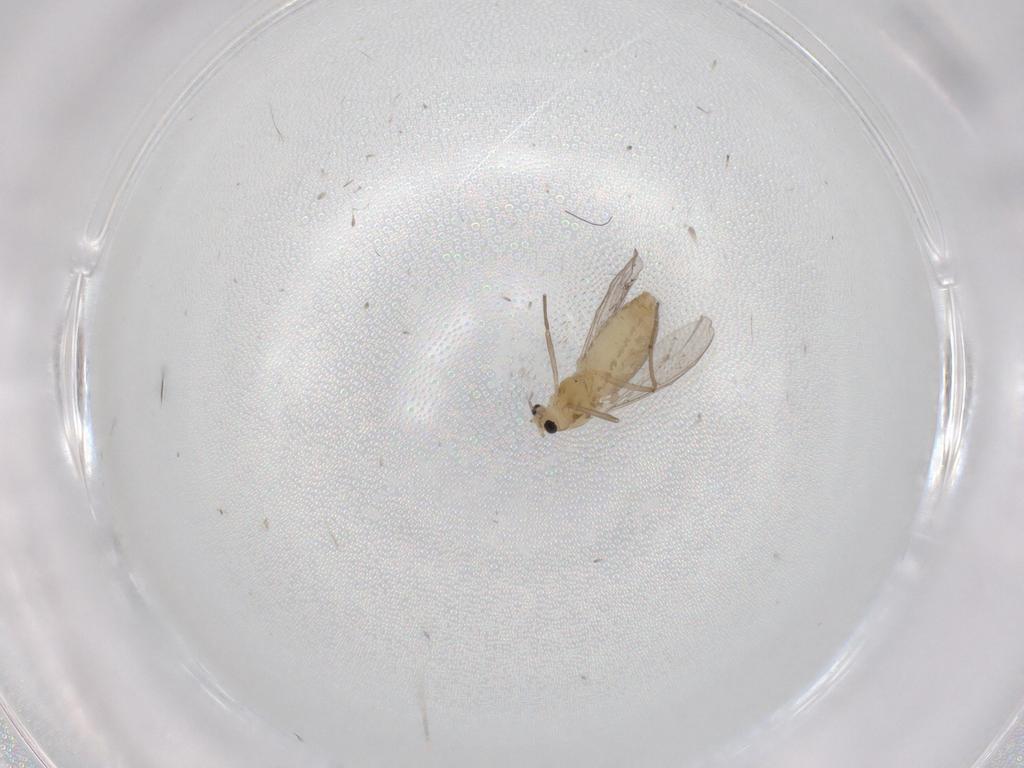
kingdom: Animalia
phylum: Arthropoda
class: Insecta
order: Diptera
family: Chironomidae
